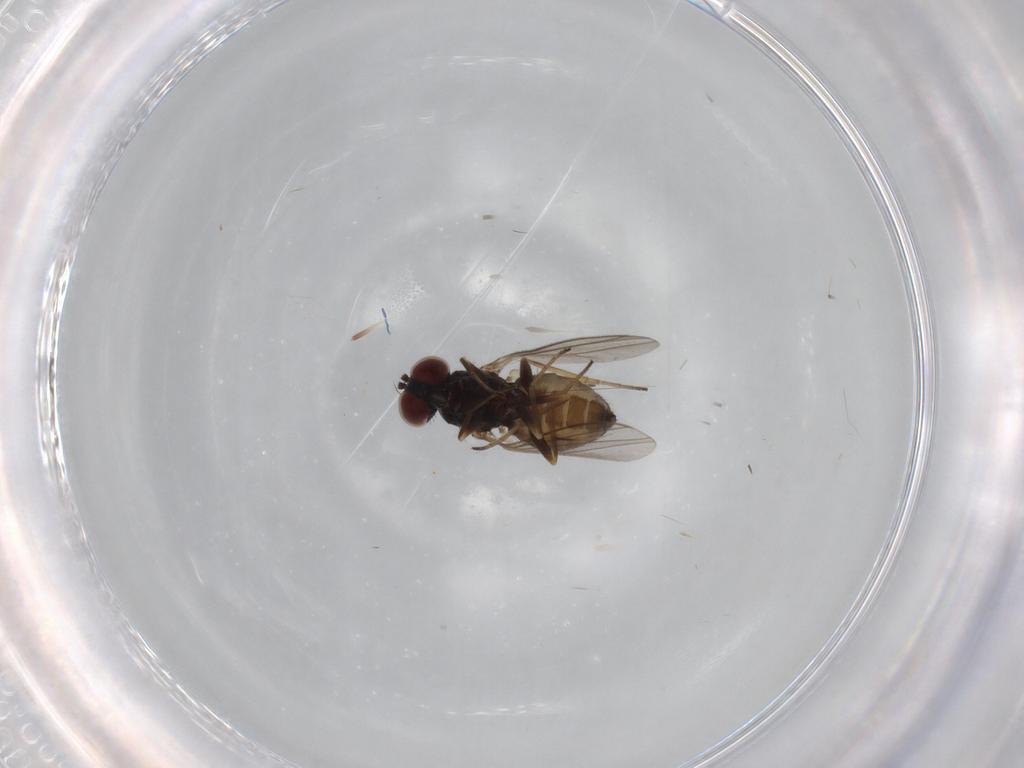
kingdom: Animalia
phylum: Arthropoda
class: Insecta
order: Diptera
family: Dolichopodidae
